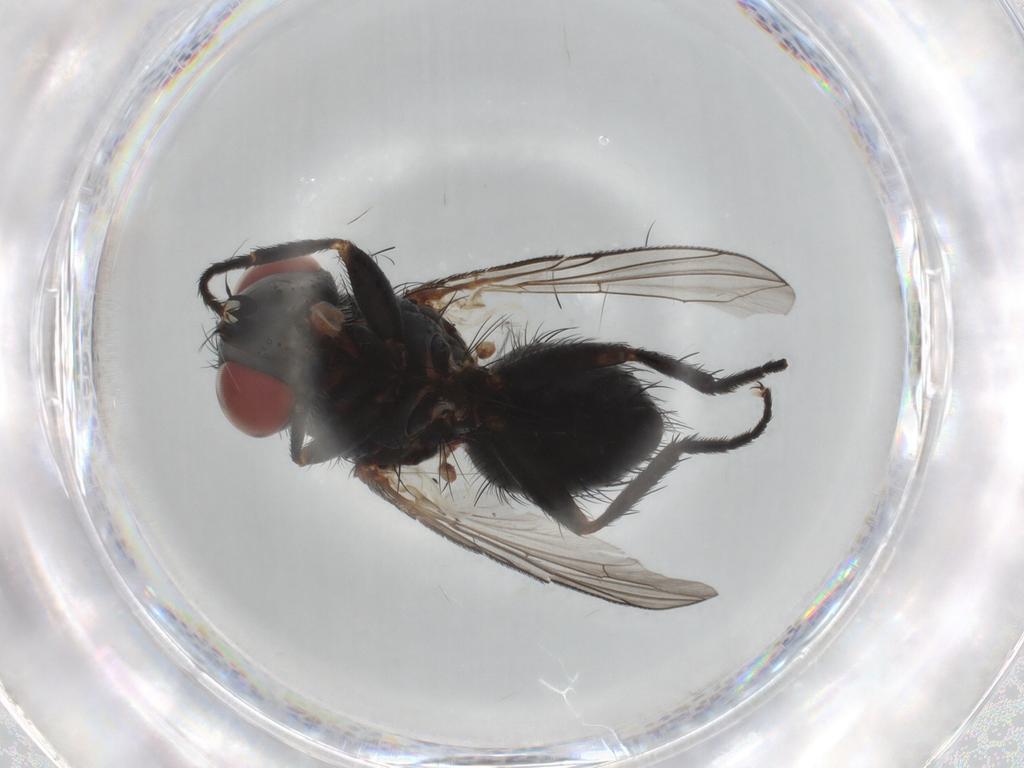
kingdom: Animalia
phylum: Arthropoda
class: Insecta
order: Diptera
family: Tachinidae
